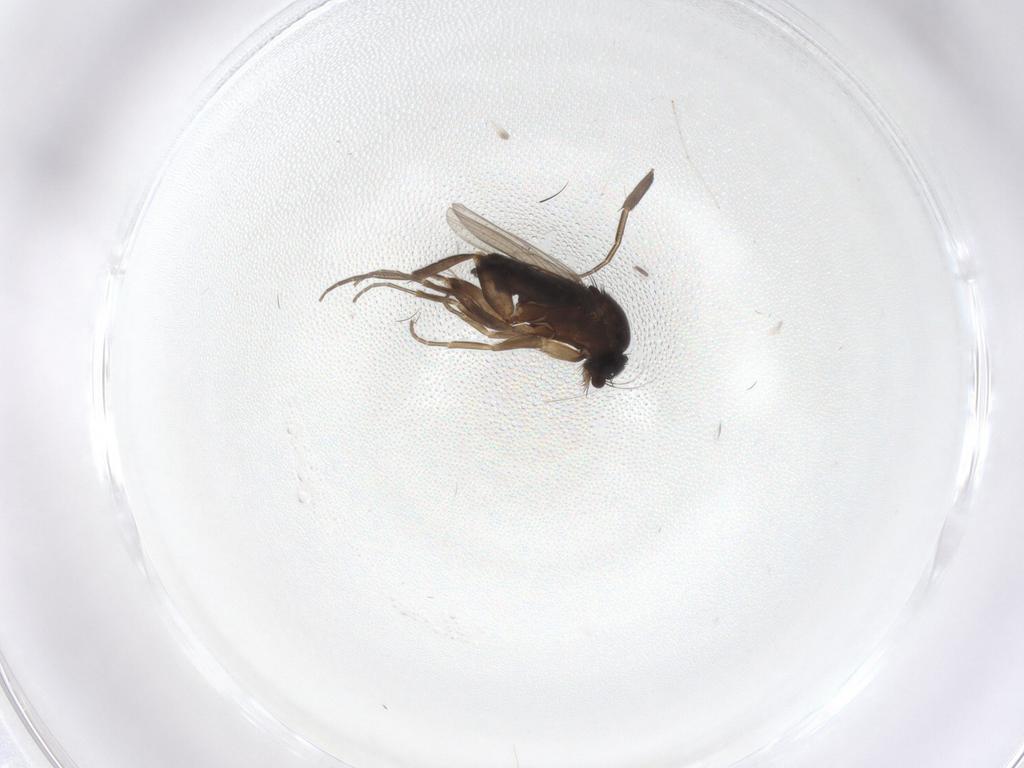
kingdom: Animalia
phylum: Arthropoda
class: Insecta
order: Diptera
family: Phoridae
